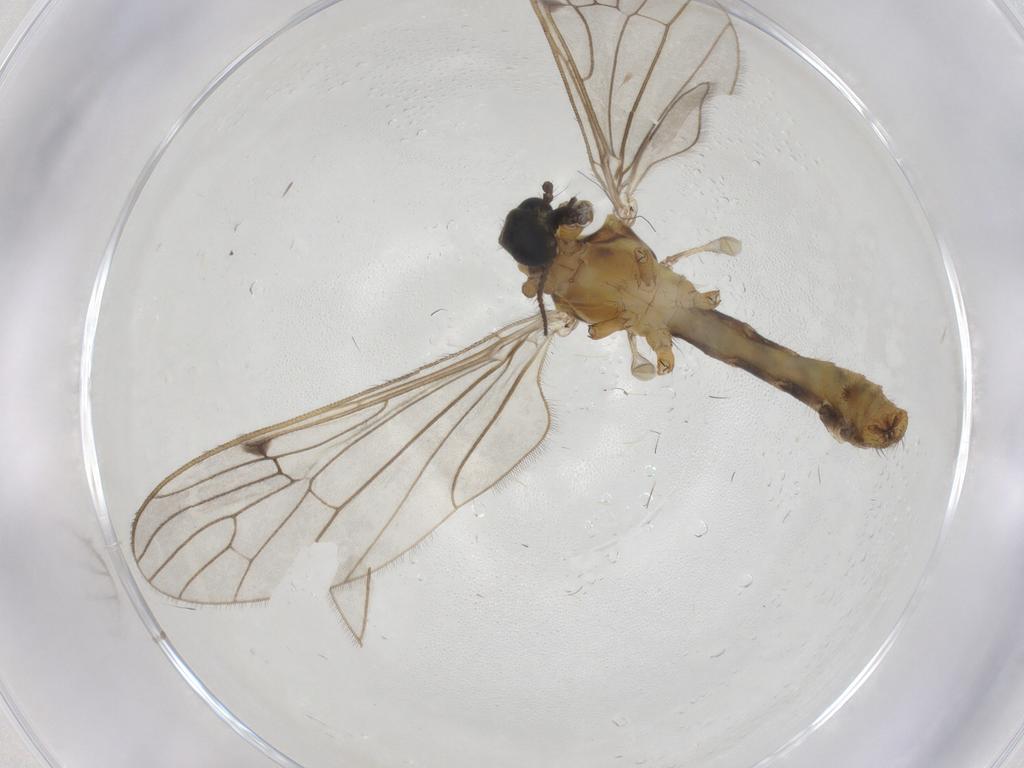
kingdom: Animalia
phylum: Arthropoda
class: Insecta
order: Diptera
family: Limoniidae
